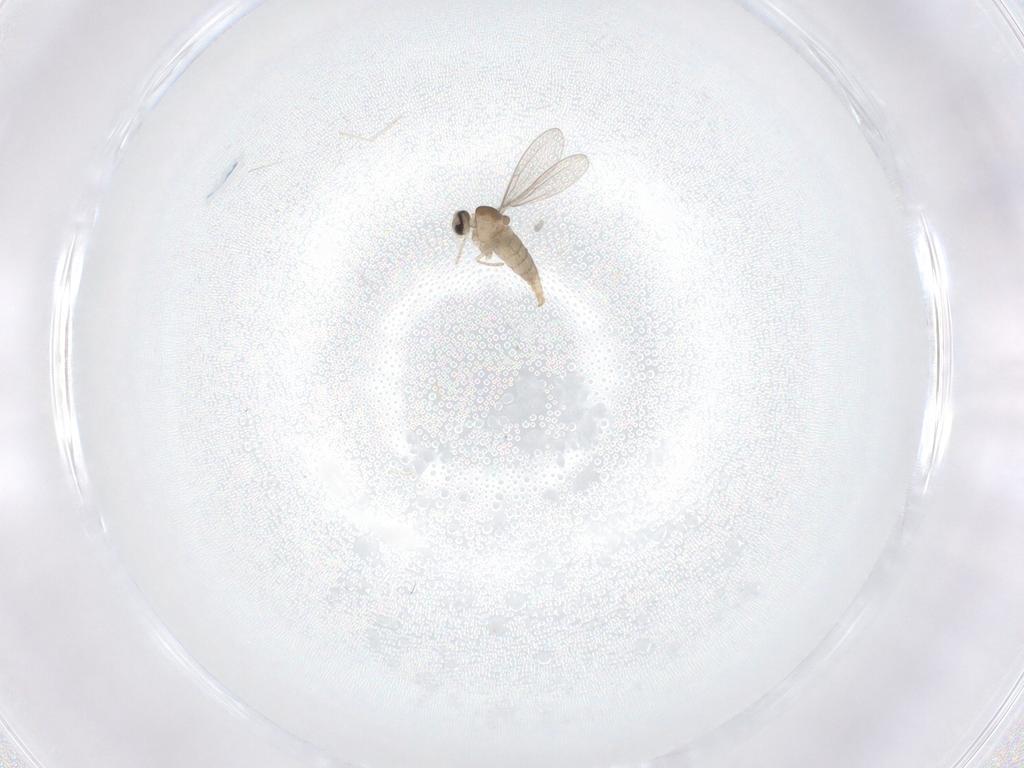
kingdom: Animalia
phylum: Arthropoda
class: Insecta
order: Diptera
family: Cecidomyiidae
